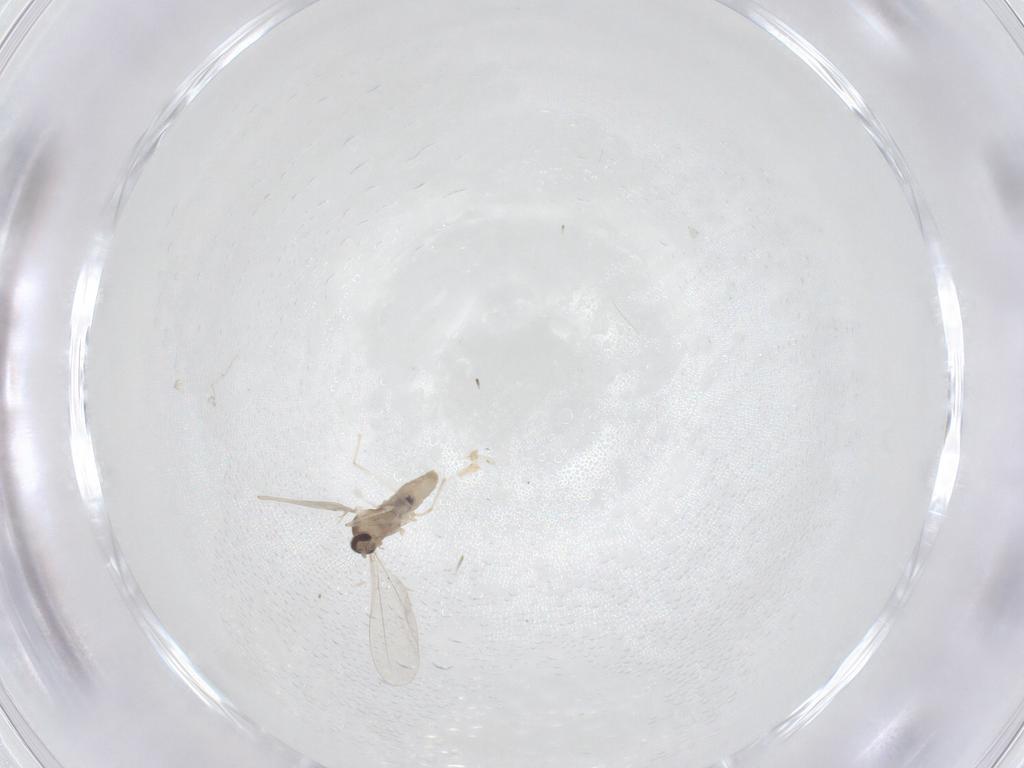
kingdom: Animalia
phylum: Arthropoda
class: Insecta
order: Diptera
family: Cecidomyiidae
